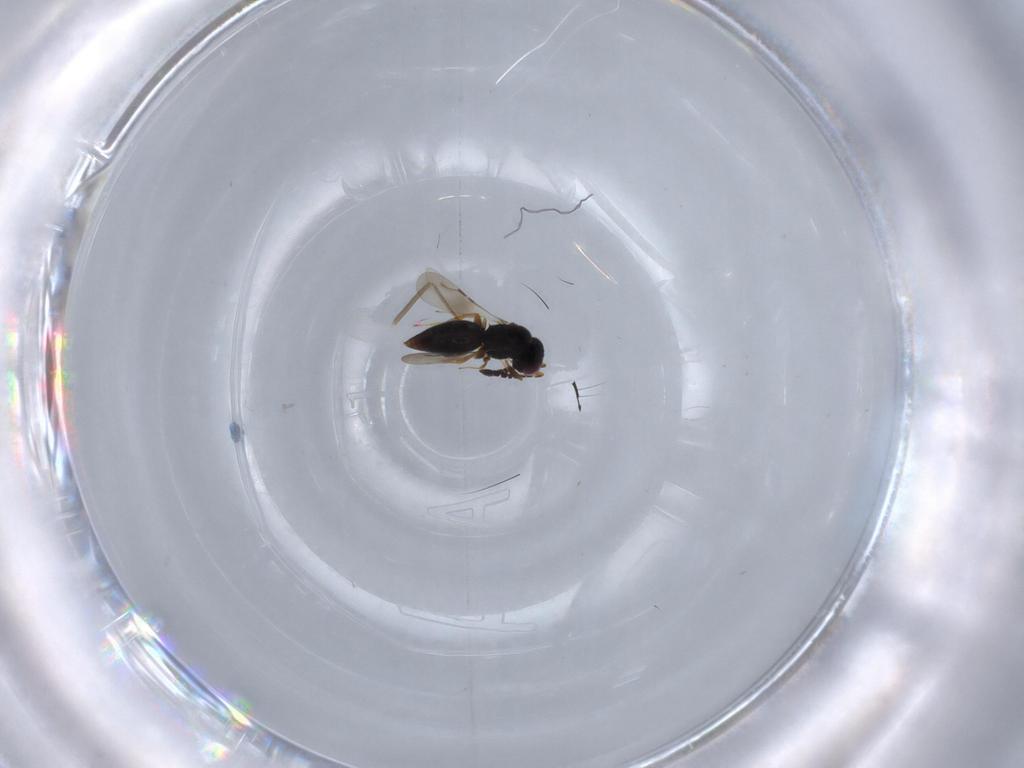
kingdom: Animalia
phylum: Arthropoda
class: Insecta
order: Hymenoptera
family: Ceraphronidae
